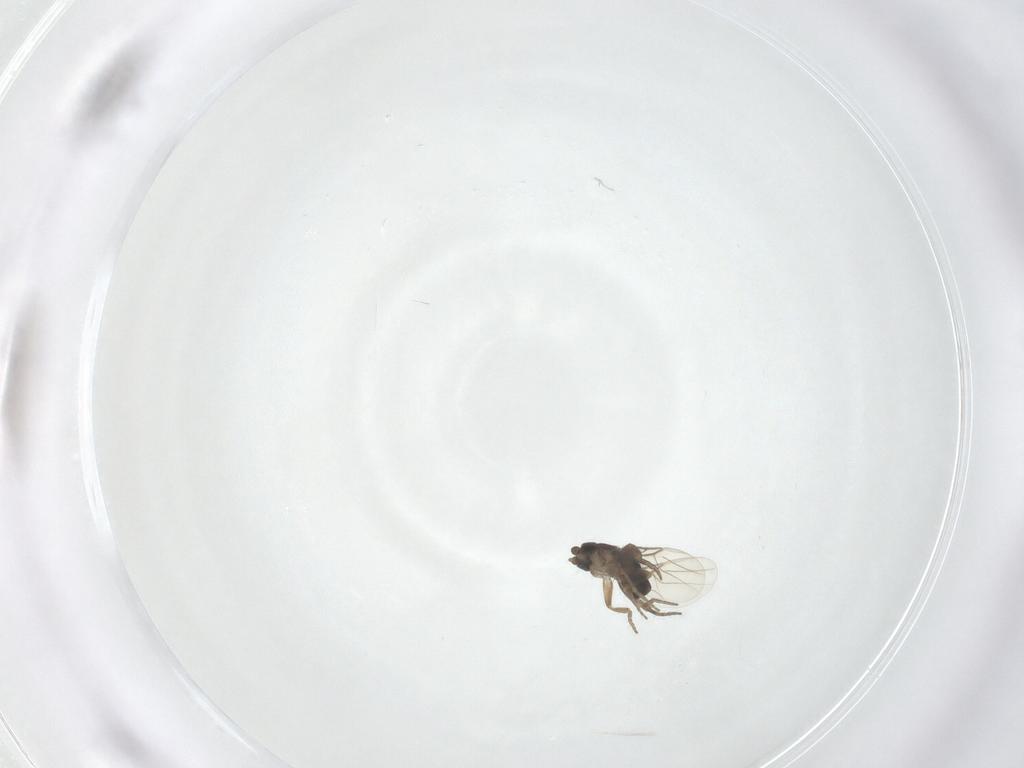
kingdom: Animalia
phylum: Arthropoda
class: Insecta
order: Diptera
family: Phoridae
